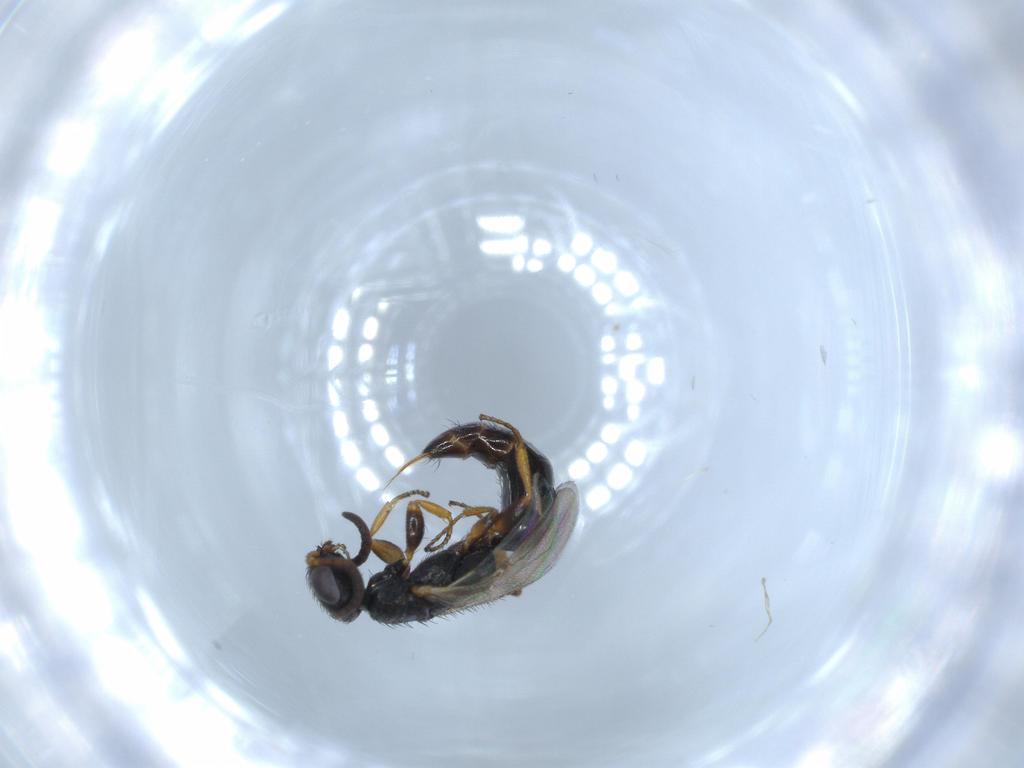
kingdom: Animalia
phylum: Arthropoda
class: Insecta
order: Hymenoptera
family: Bethylidae
